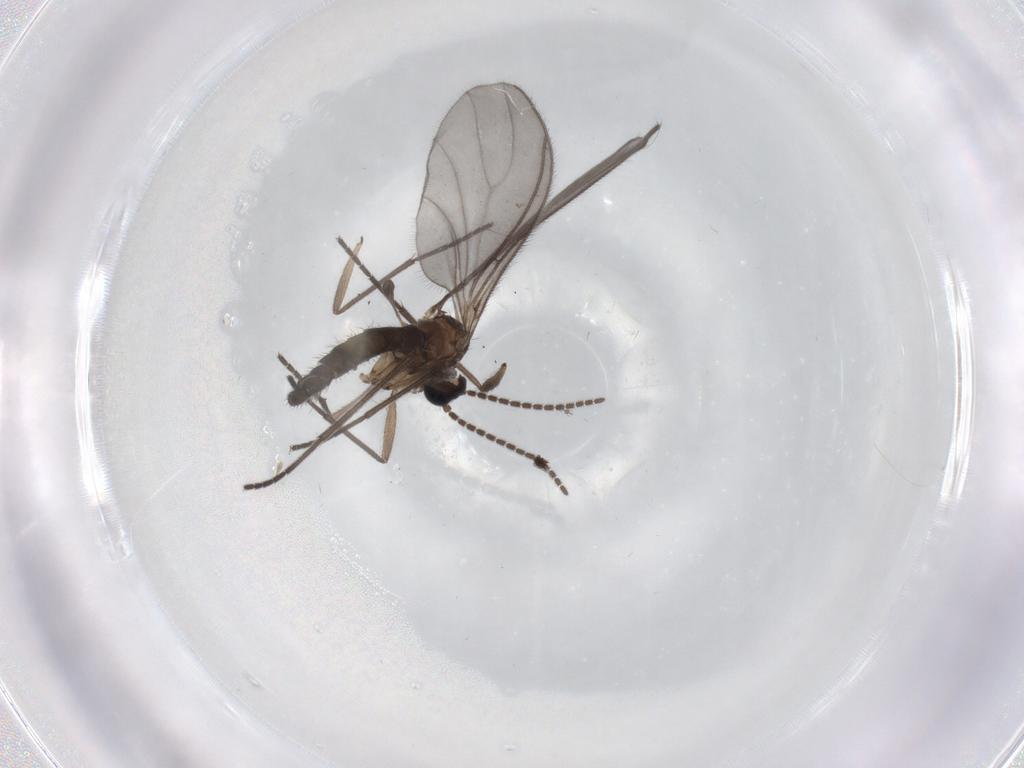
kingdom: Animalia
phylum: Arthropoda
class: Insecta
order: Diptera
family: Sciaridae
